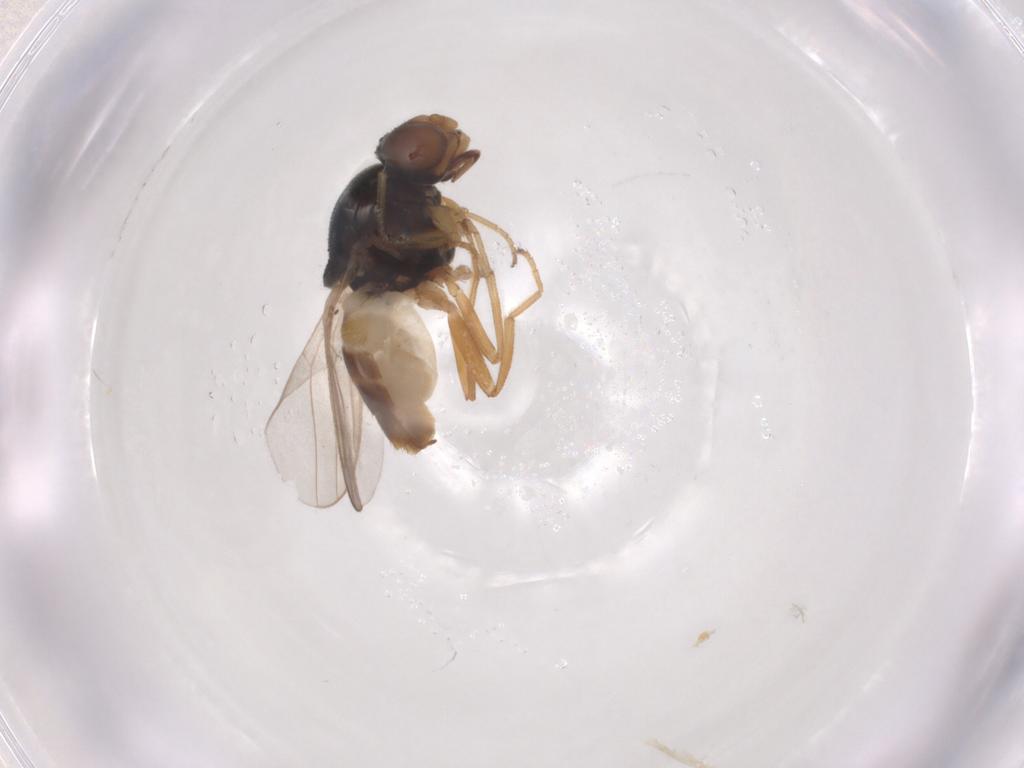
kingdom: Animalia
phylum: Arthropoda
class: Insecta
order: Diptera
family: Chloropidae
